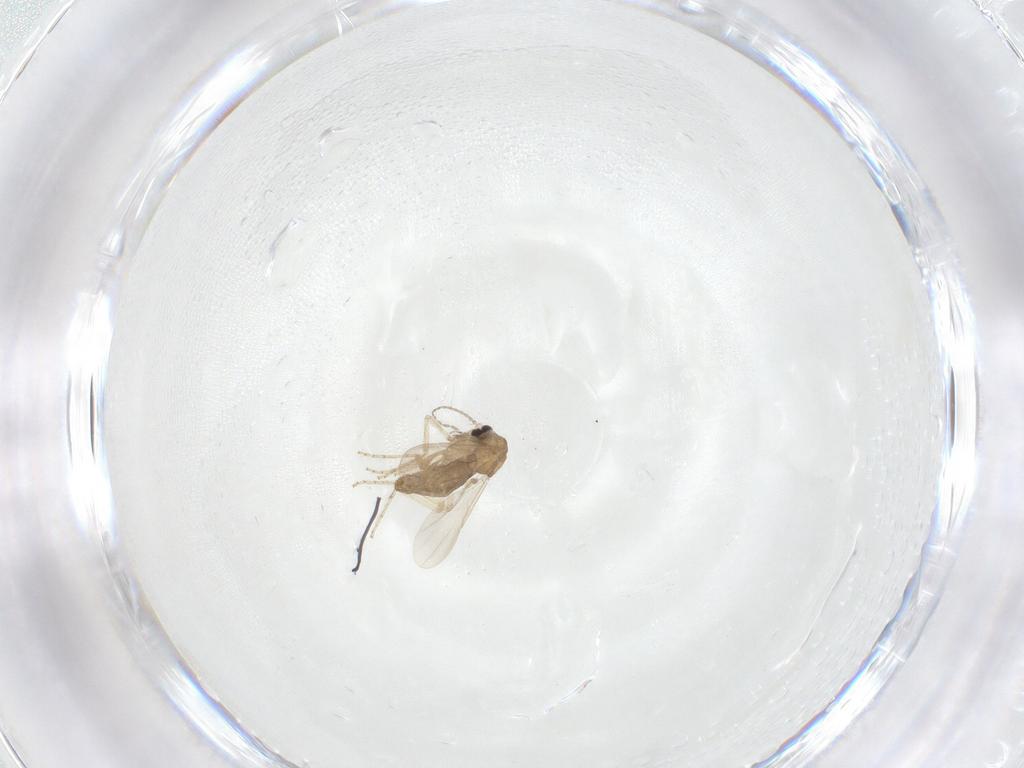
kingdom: Animalia
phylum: Arthropoda
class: Insecta
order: Diptera
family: Ceratopogonidae
